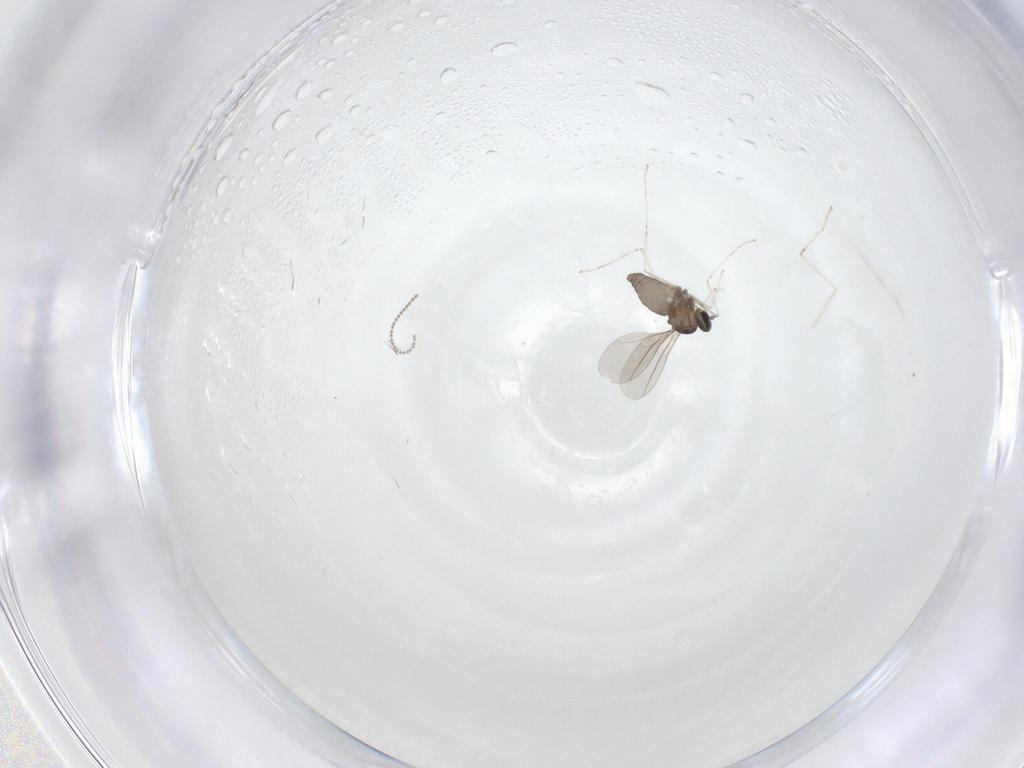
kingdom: Animalia
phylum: Arthropoda
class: Insecta
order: Diptera
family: Cecidomyiidae
